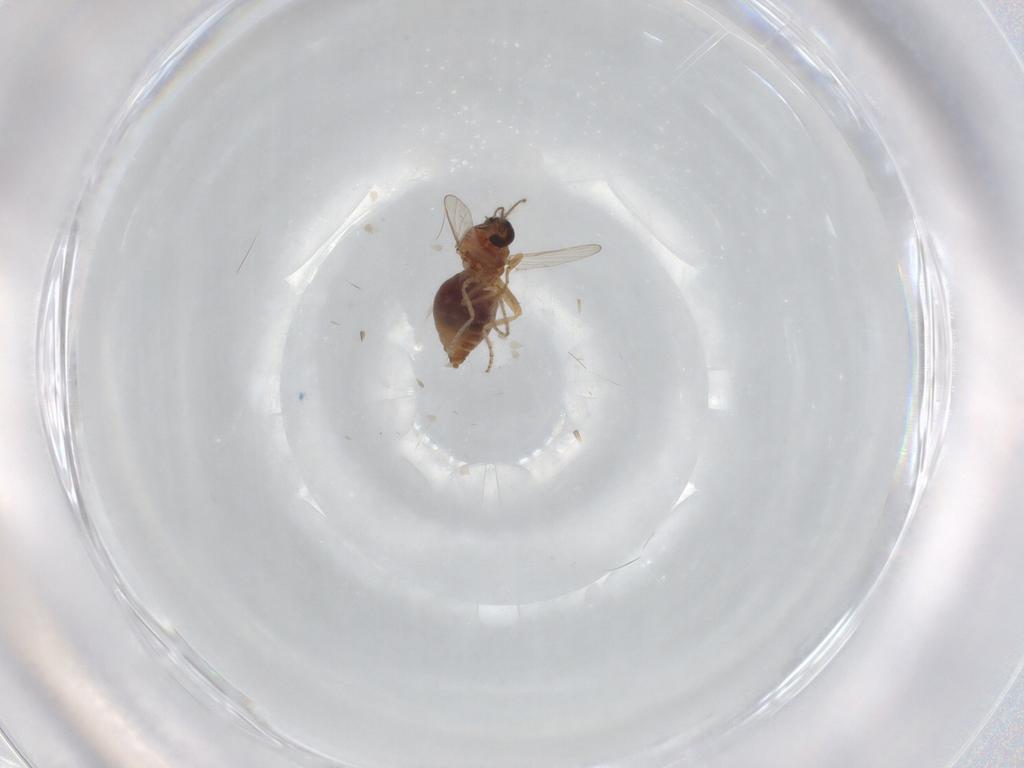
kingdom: Animalia
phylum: Arthropoda
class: Insecta
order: Diptera
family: Ceratopogonidae
